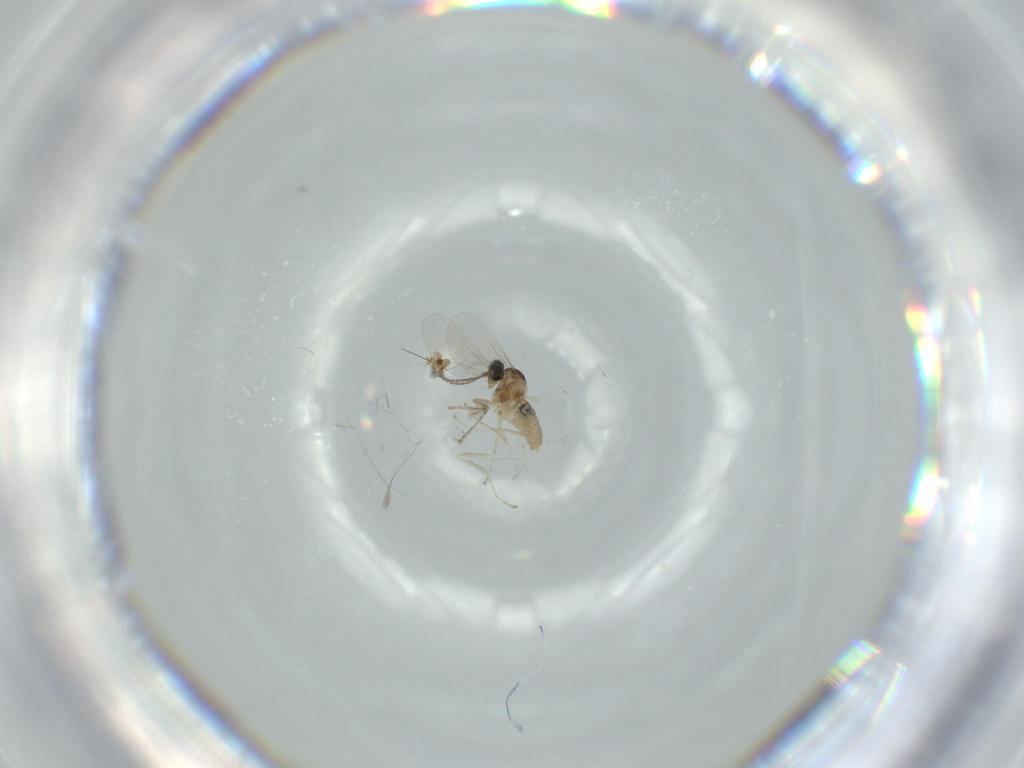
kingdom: Animalia
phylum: Arthropoda
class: Insecta
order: Diptera
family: Cecidomyiidae
